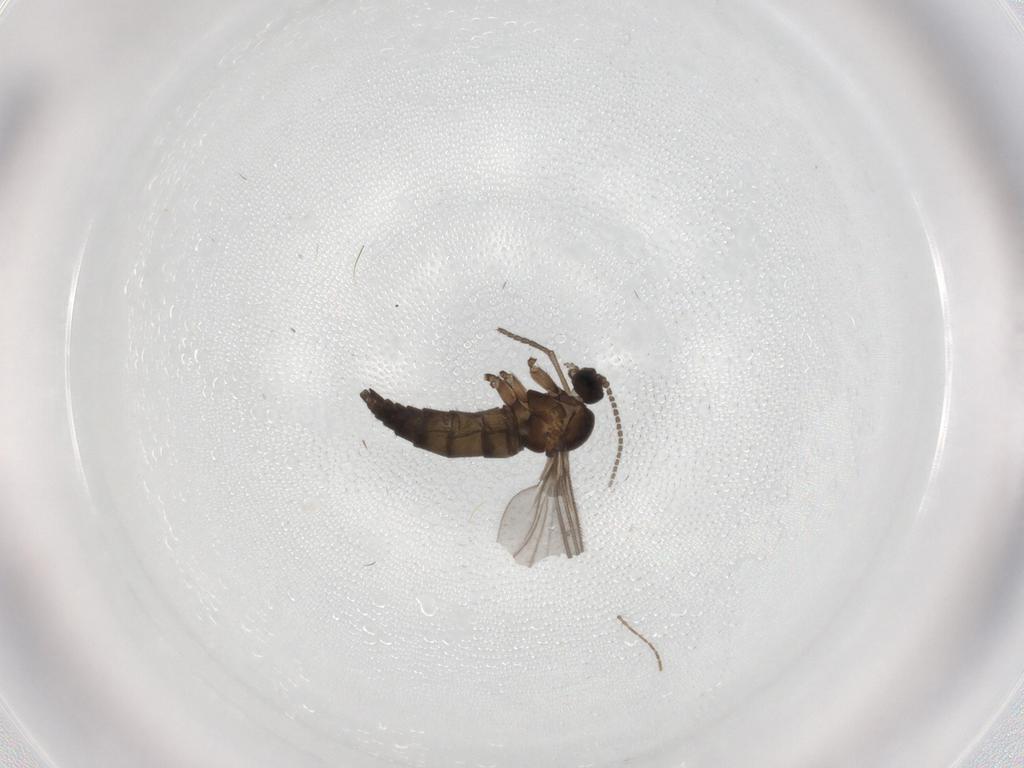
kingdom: Animalia
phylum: Arthropoda
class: Insecta
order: Diptera
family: Sciaridae
